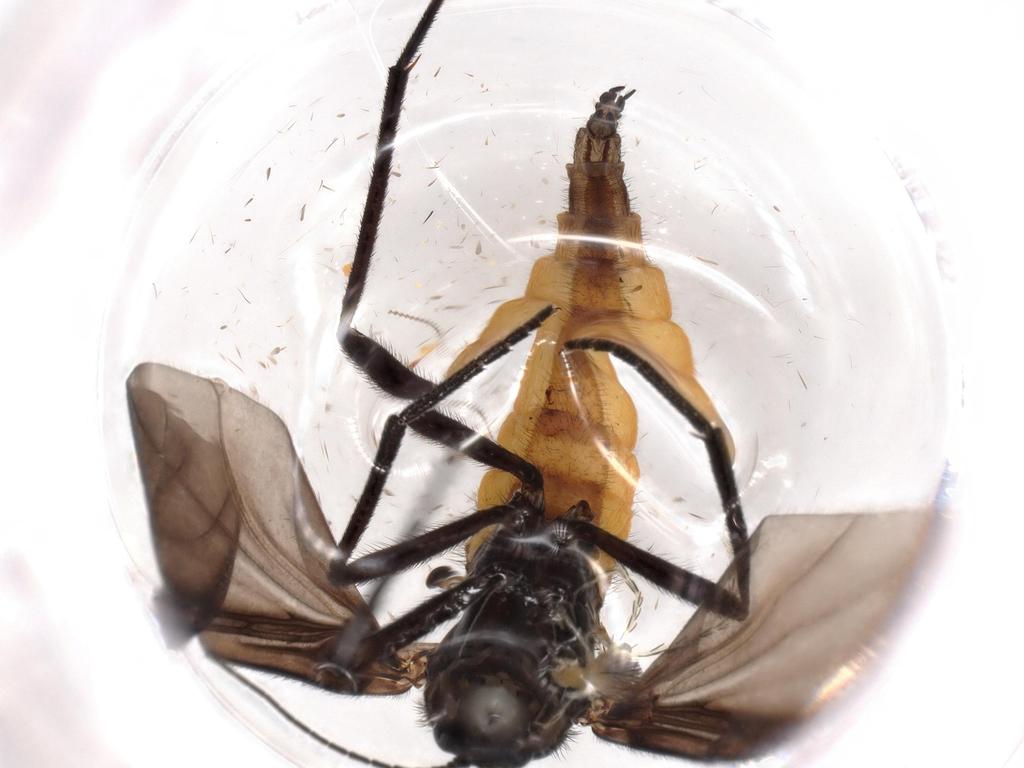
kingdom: Animalia
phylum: Arthropoda
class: Insecta
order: Diptera
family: Cecidomyiidae
